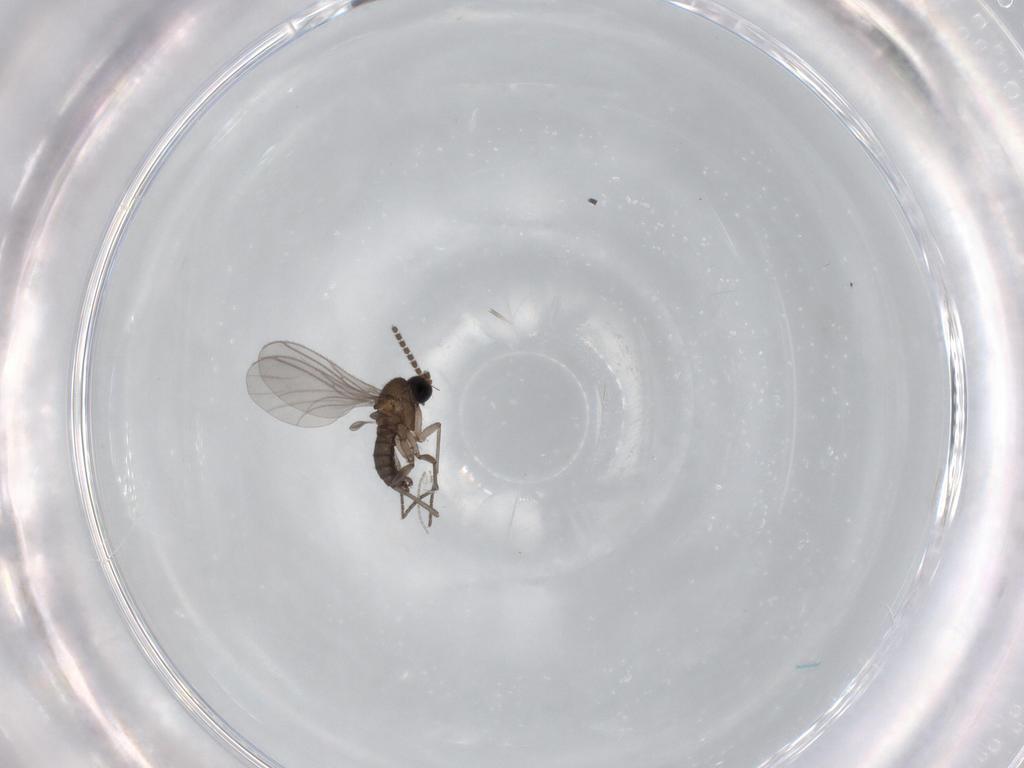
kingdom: Animalia
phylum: Arthropoda
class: Insecta
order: Diptera
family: Sciaridae
